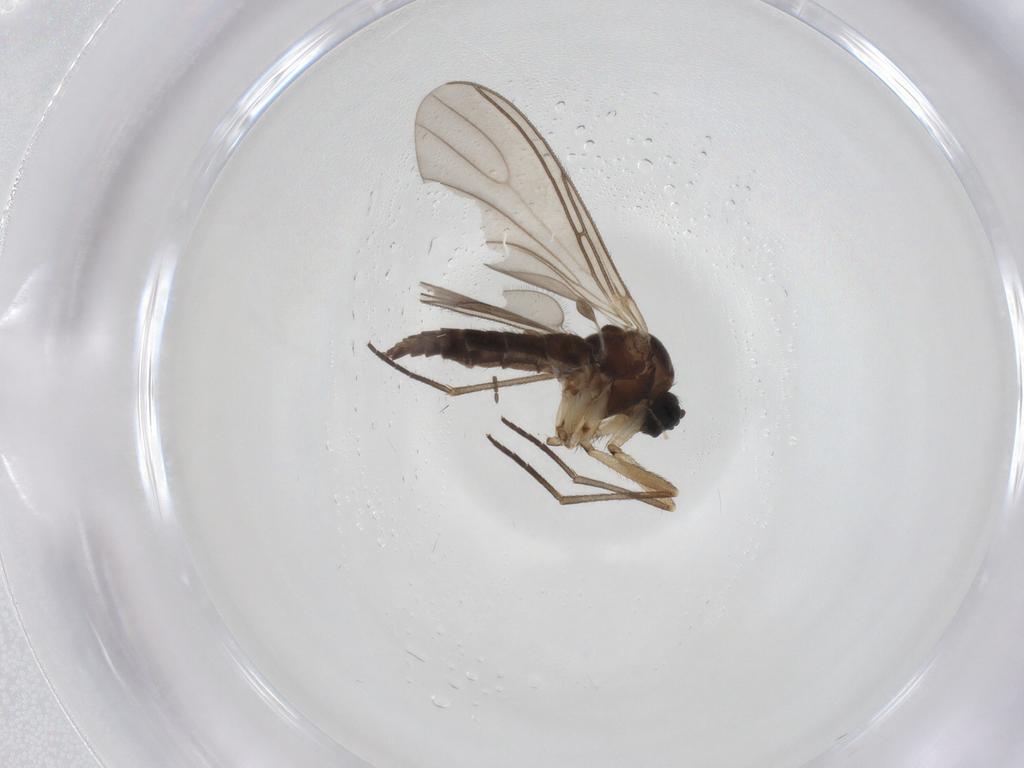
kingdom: Animalia
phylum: Arthropoda
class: Insecta
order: Diptera
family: Sciaridae
